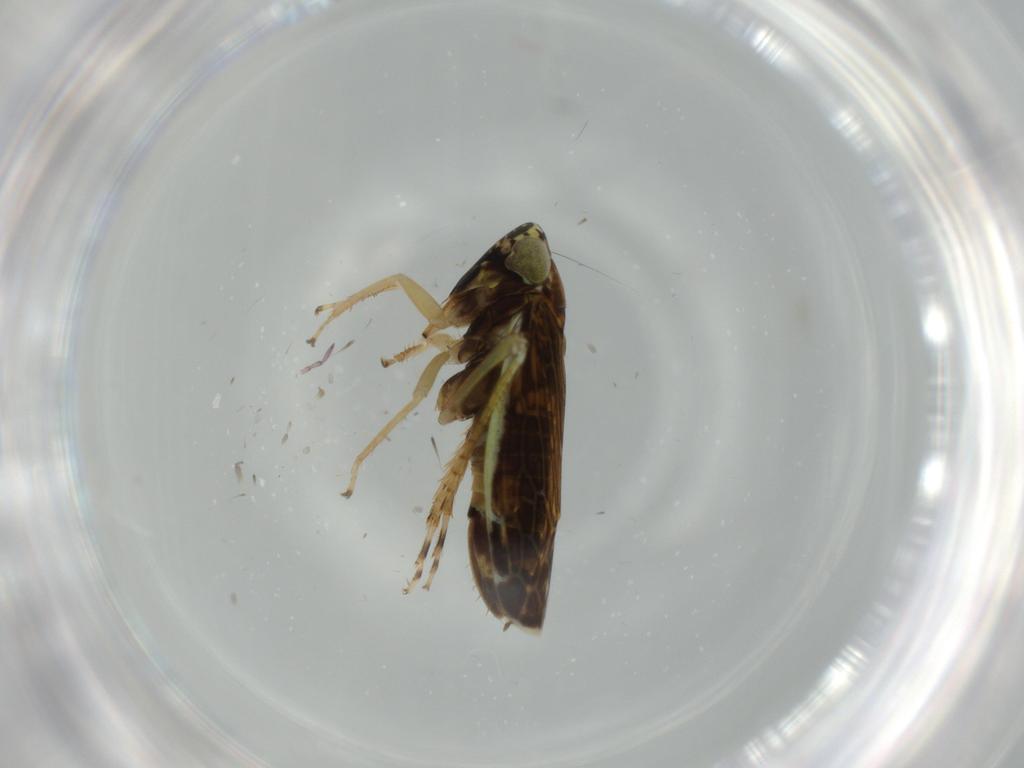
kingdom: Animalia
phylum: Arthropoda
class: Insecta
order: Hemiptera
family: Cicadellidae
